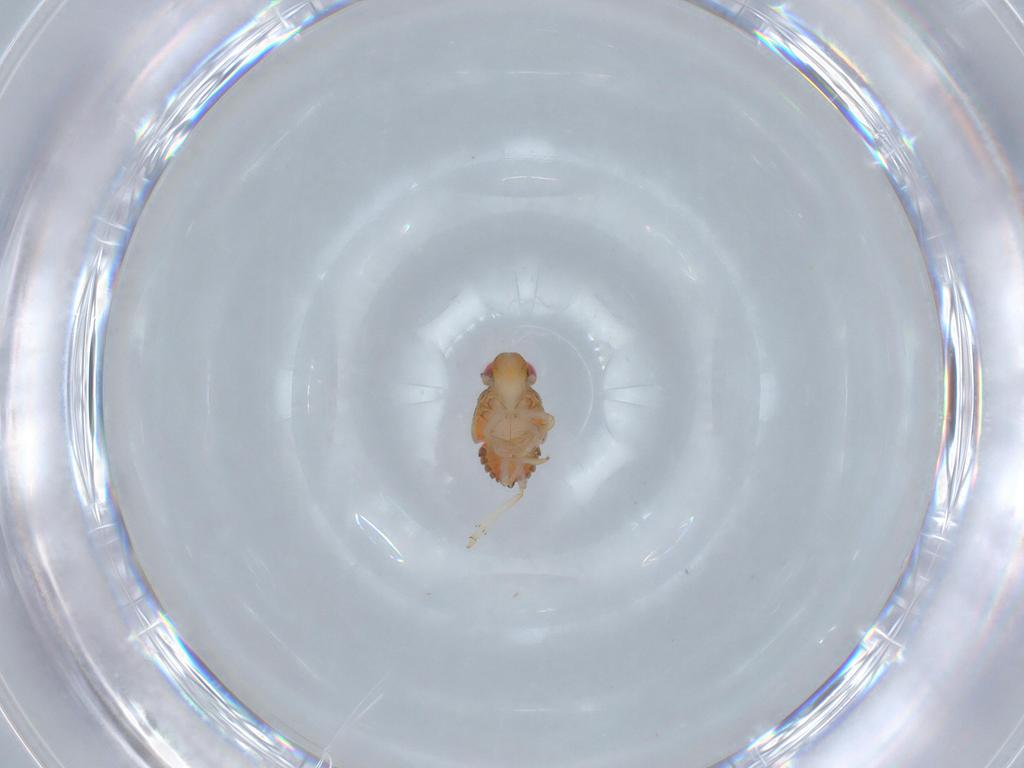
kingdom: Animalia
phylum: Arthropoda
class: Insecta
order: Hemiptera
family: Issidae
